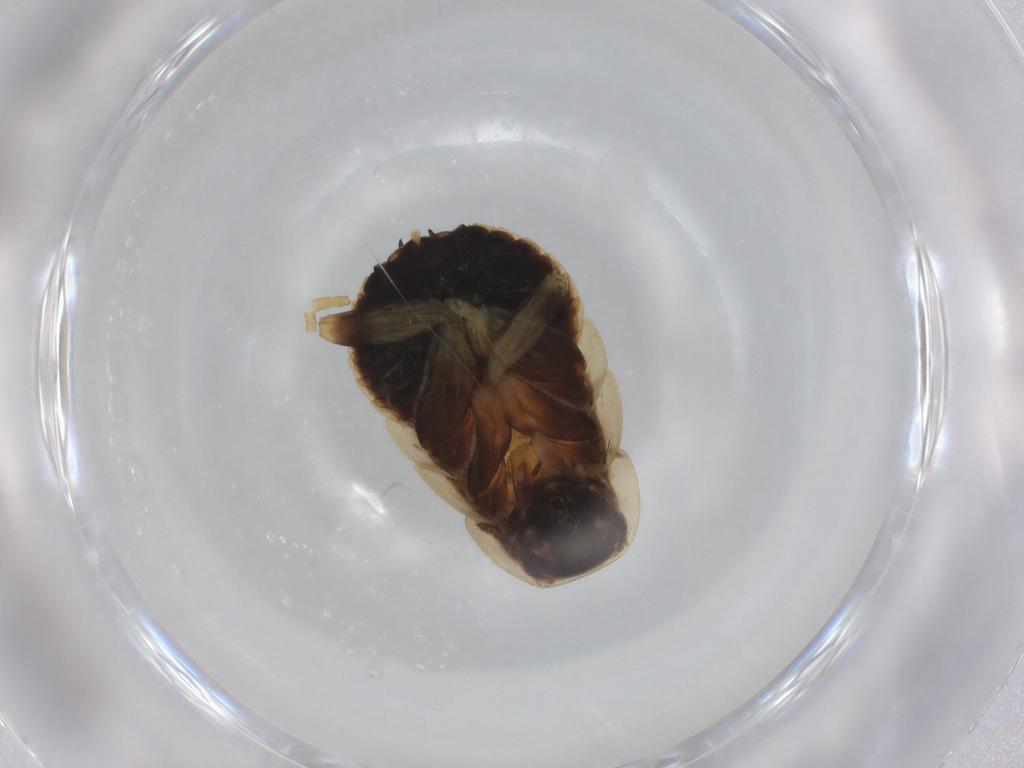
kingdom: Animalia
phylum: Arthropoda
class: Insecta
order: Blattodea
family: Ectobiidae
